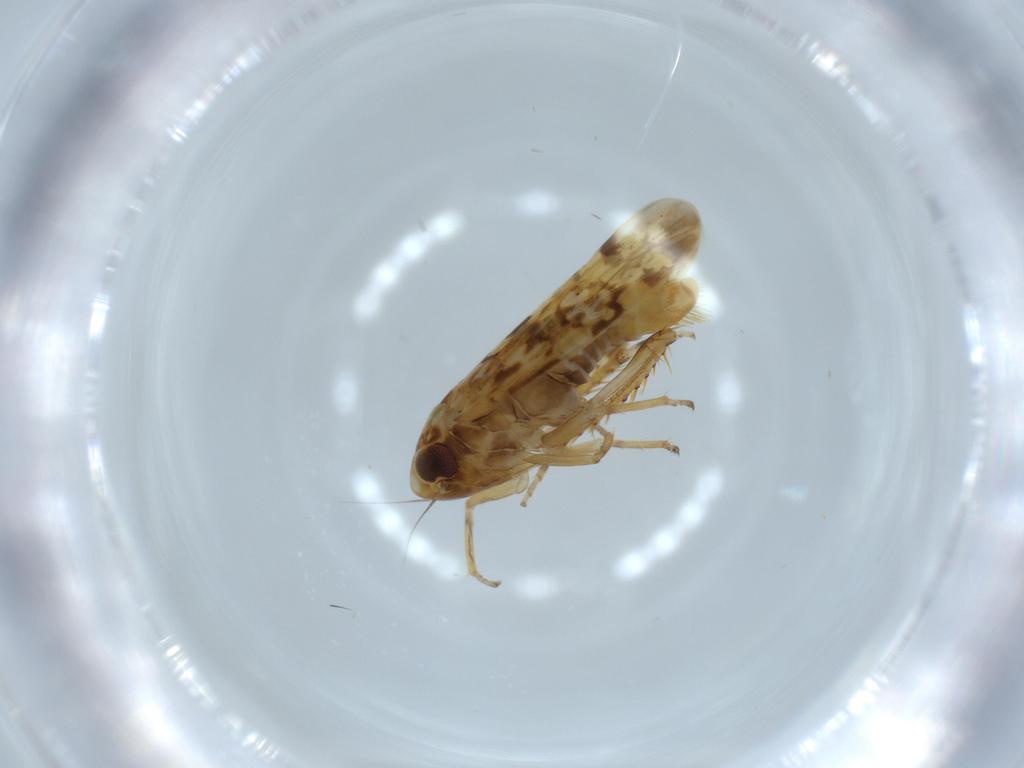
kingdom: Animalia
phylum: Arthropoda
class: Insecta
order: Hemiptera
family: Cicadellidae
